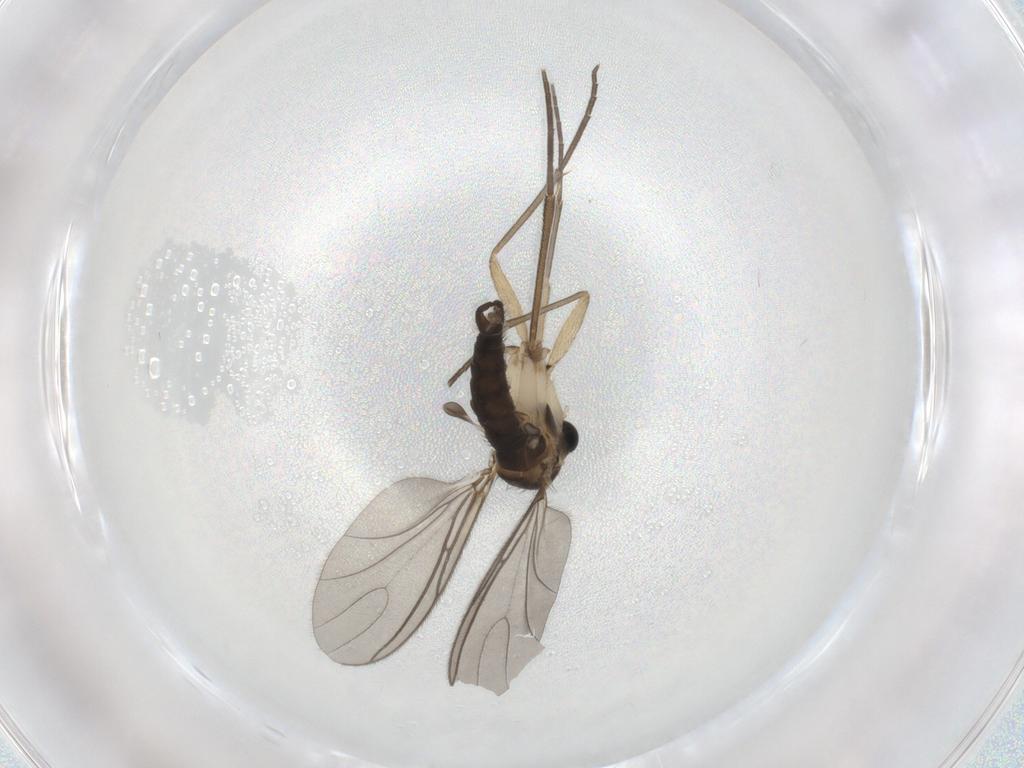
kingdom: Animalia
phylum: Arthropoda
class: Insecta
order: Diptera
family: Sciaridae
